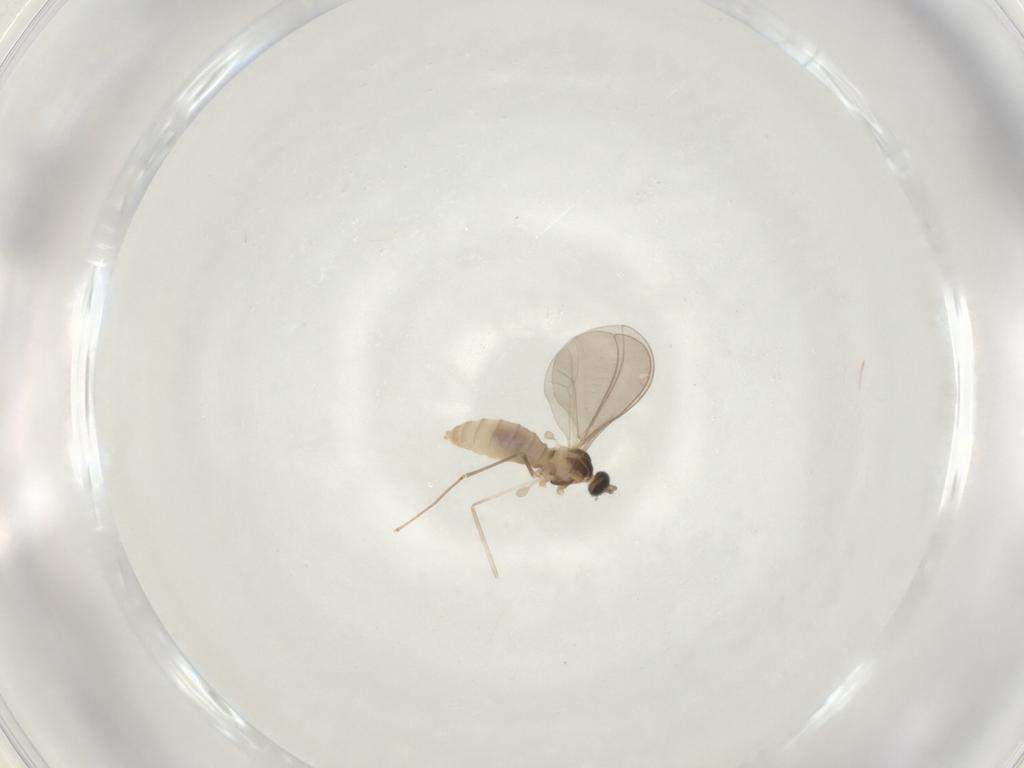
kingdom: Animalia
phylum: Arthropoda
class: Insecta
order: Diptera
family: Cecidomyiidae
